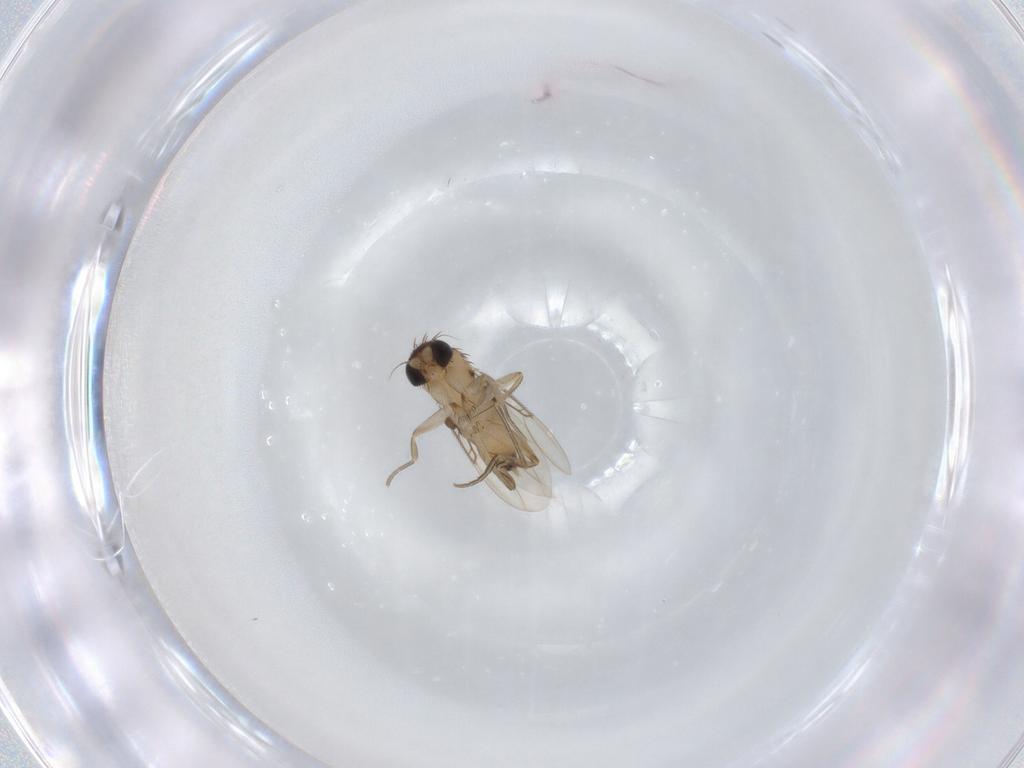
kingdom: Animalia
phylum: Arthropoda
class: Insecta
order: Diptera
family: Phoridae
